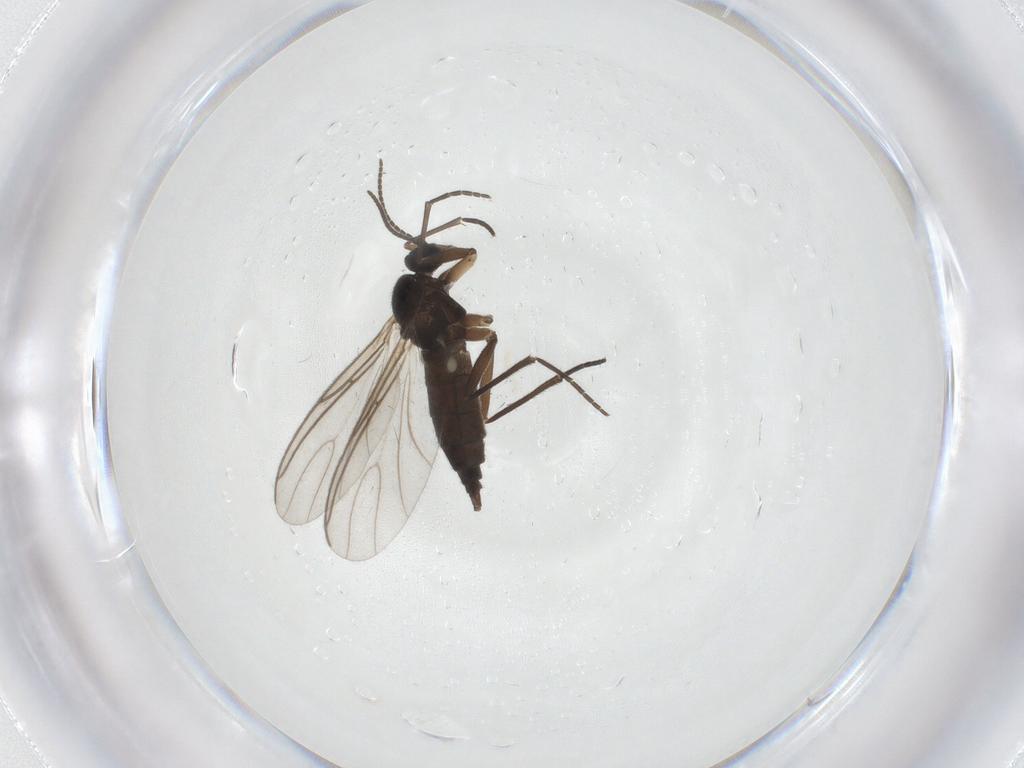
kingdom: Animalia
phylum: Arthropoda
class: Insecta
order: Diptera
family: Sciaridae
